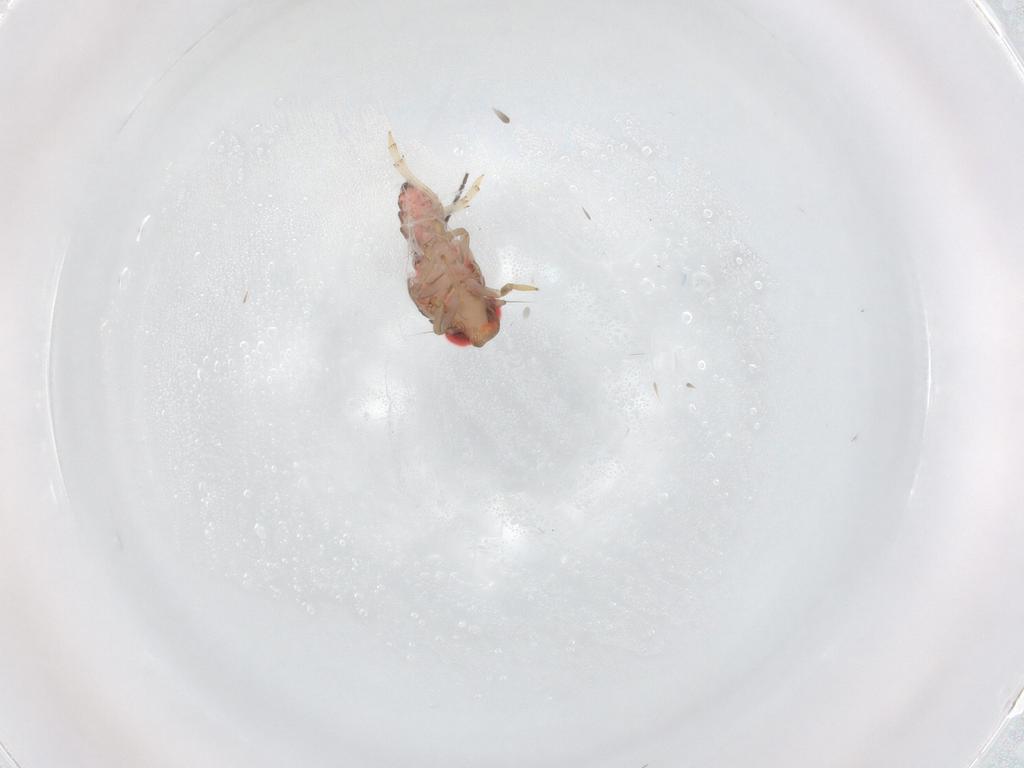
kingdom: Animalia
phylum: Arthropoda
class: Insecta
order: Hemiptera
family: Issidae
